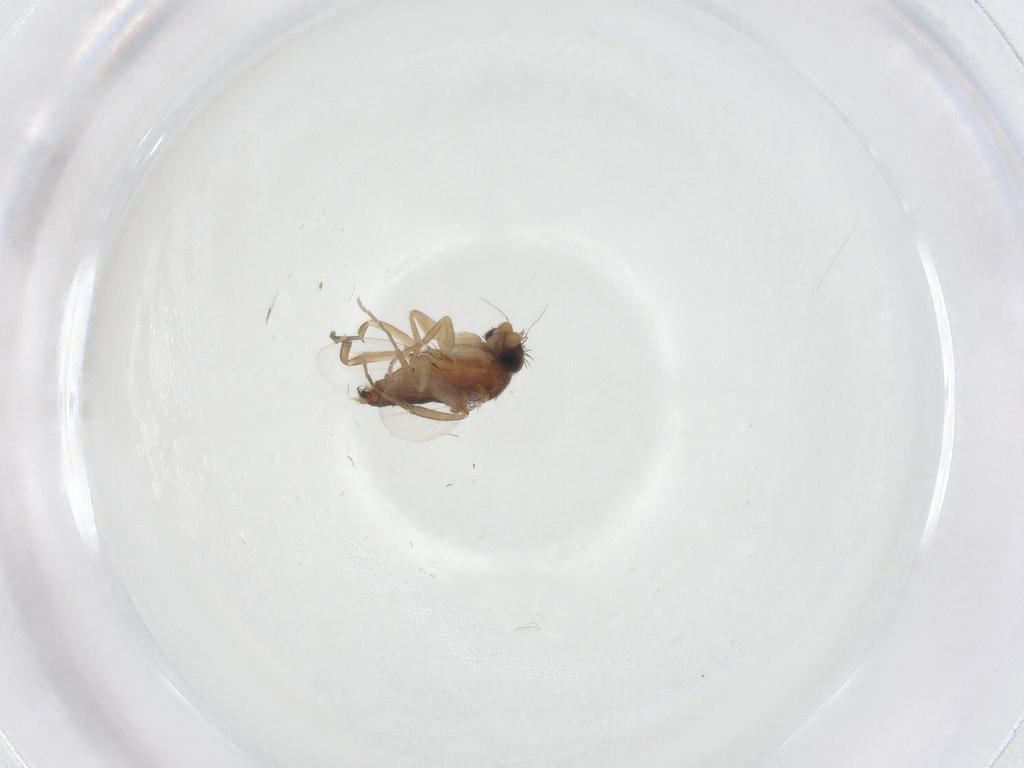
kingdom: Animalia
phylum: Arthropoda
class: Insecta
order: Diptera
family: Phoridae
